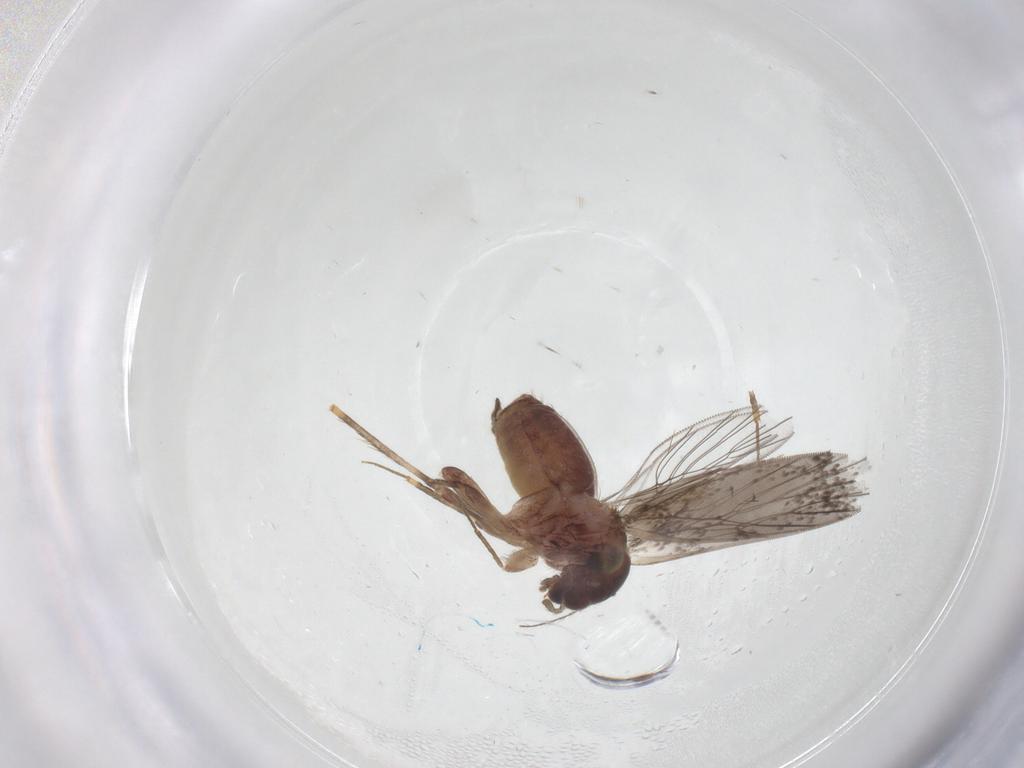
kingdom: Animalia
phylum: Arthropoda
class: Insecta
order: Psocodea
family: Lepidopsocidae
